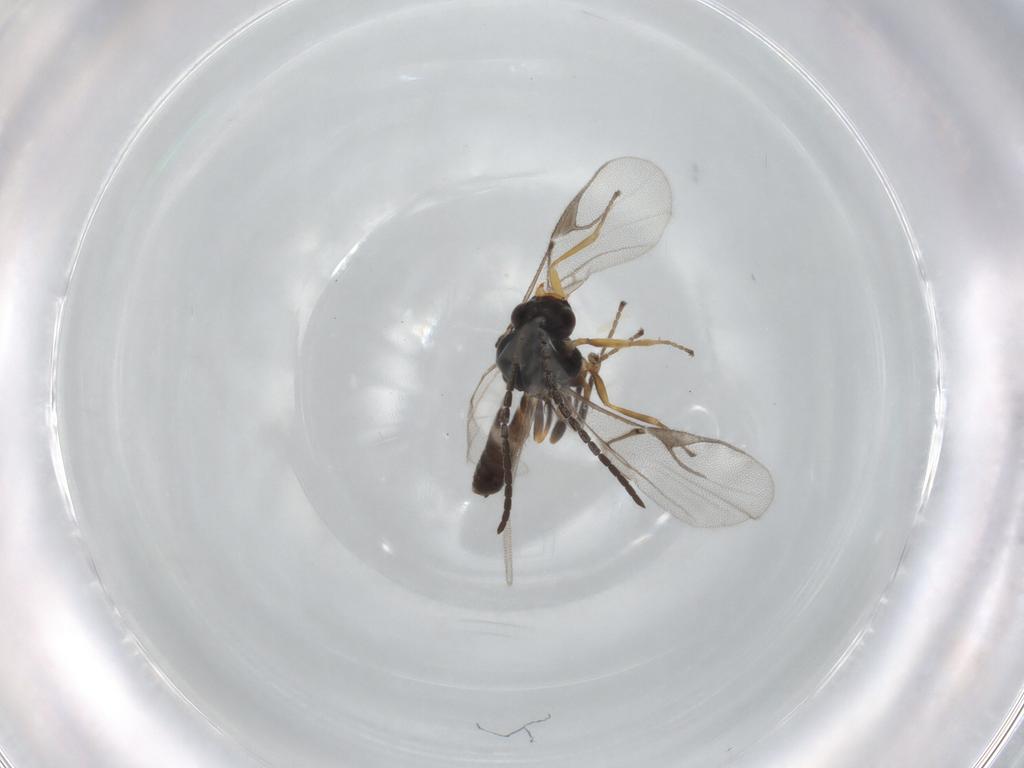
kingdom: Animalia
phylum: Arthropoda
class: Insecta
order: Hymenoptera
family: Braconidae
